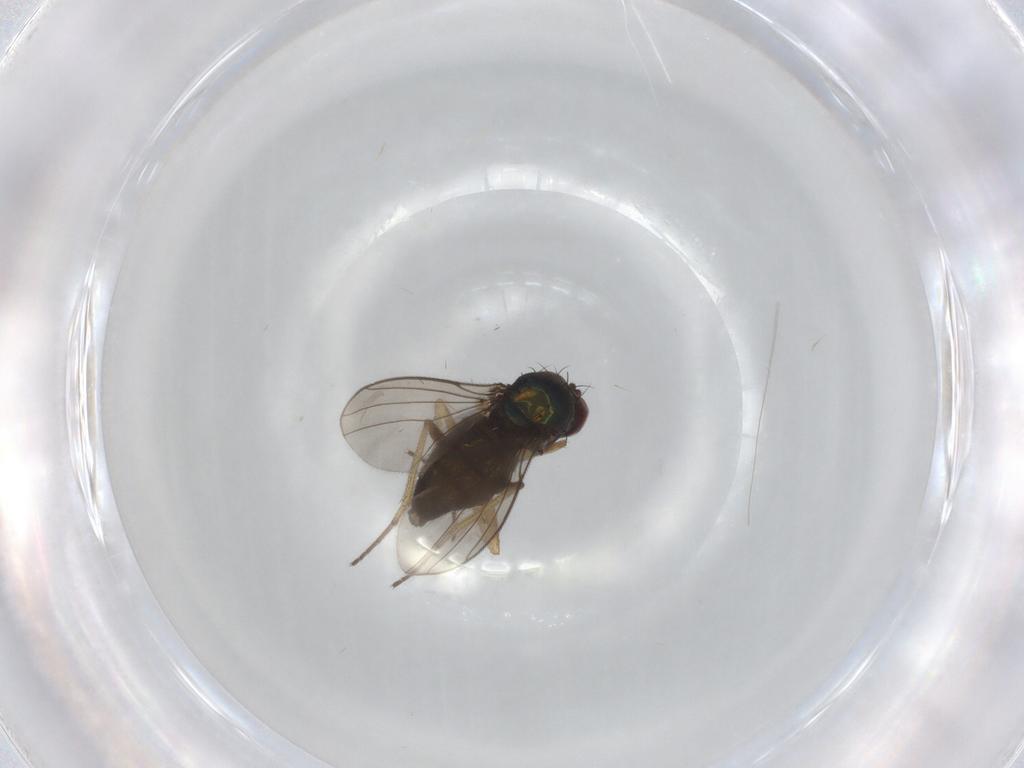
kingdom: Animalia
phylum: Arthropoda
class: Insecta
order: Diptera
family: Dolichopodidae
